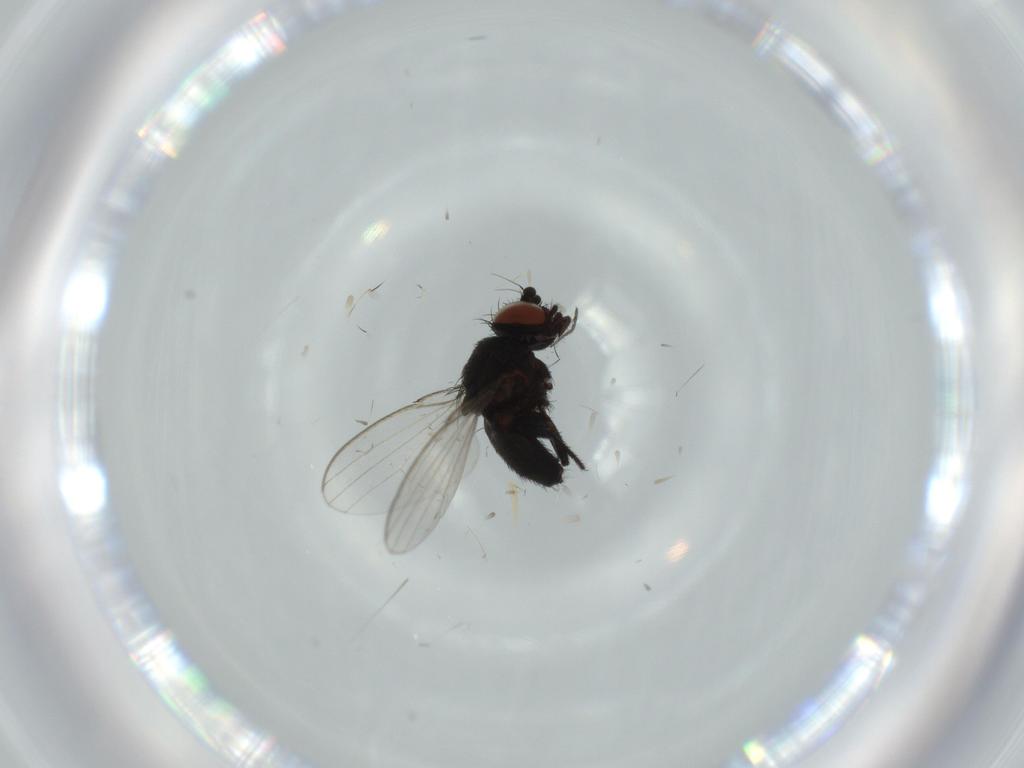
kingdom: Animalia
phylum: Arthropoda
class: Insecta
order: Diptera
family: Milichiidae
